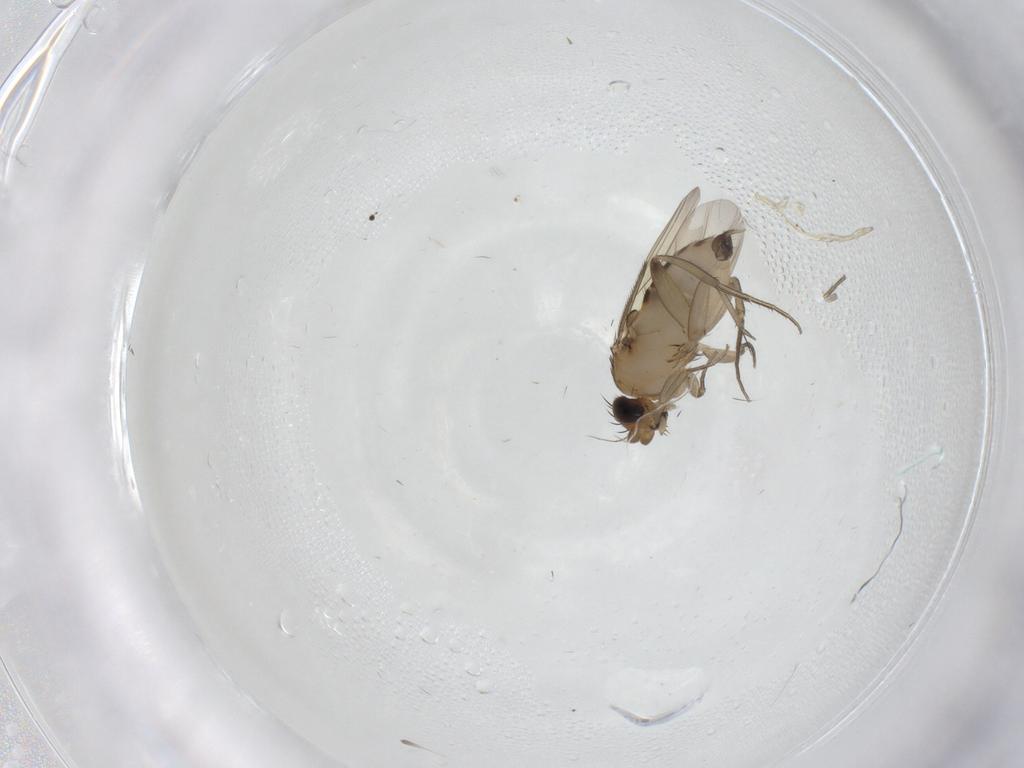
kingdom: Animalia
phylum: Arthropoda
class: Insecta
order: Diptera
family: Phoridae
